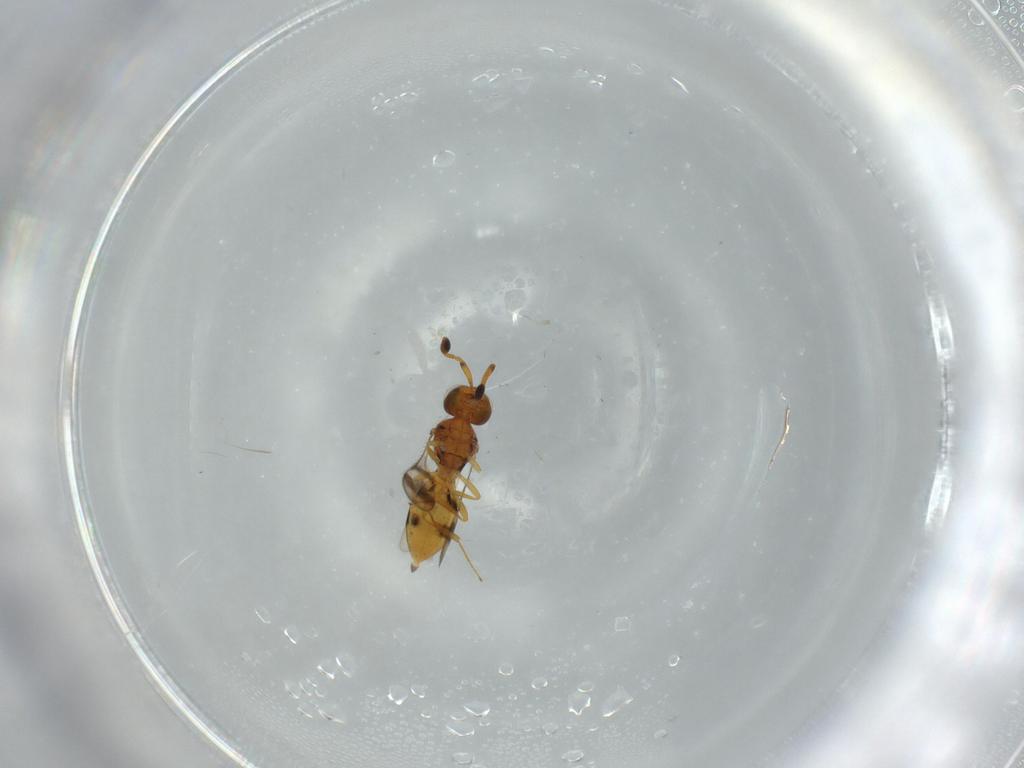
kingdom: Animalia
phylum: Arthropoda
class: Insecta
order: Hymenoptera
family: Scelionidae
